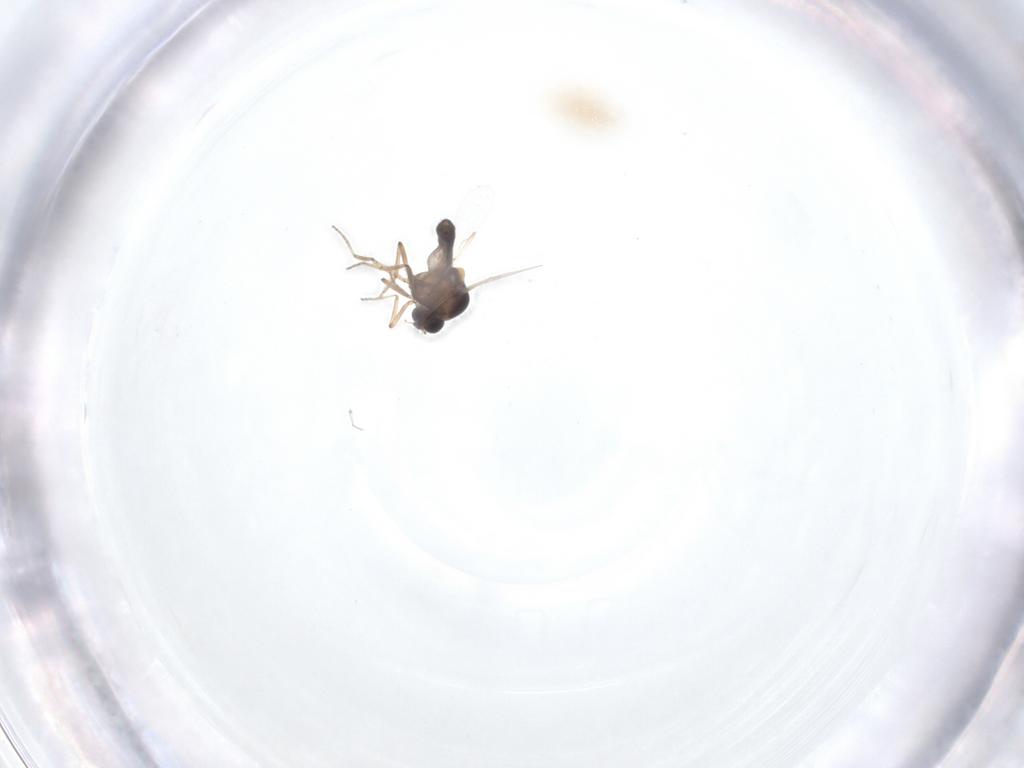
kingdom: Animalia
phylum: Arthropoda
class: Insecta
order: Diptera
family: Ceratopogonidae
